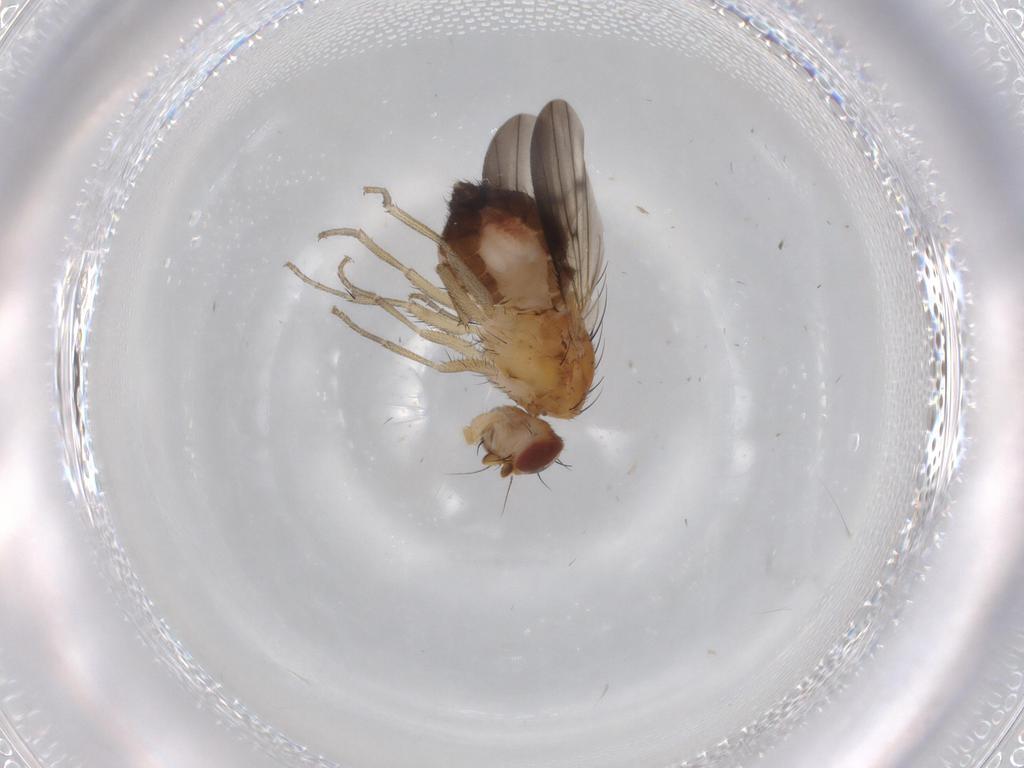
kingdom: Animalia
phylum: Arthropoda
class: Insecta
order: Diptera
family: Heleomyzidae
